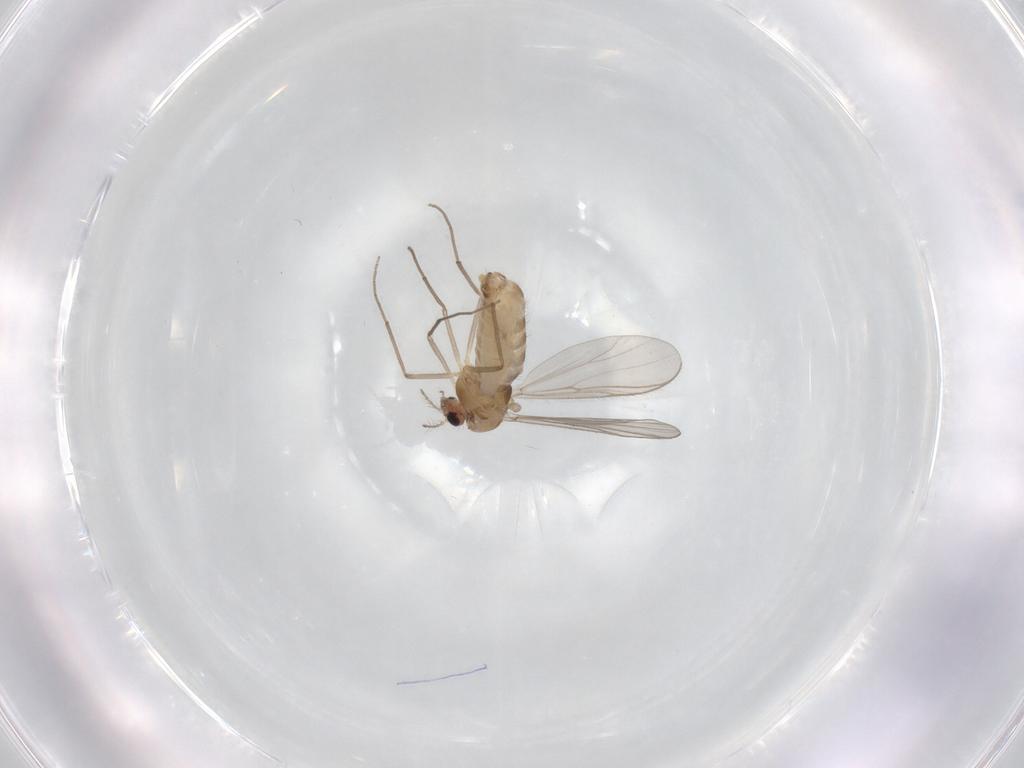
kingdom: Animalia
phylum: Arthropoda
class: Insecta
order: Diptera
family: Chironomidae
